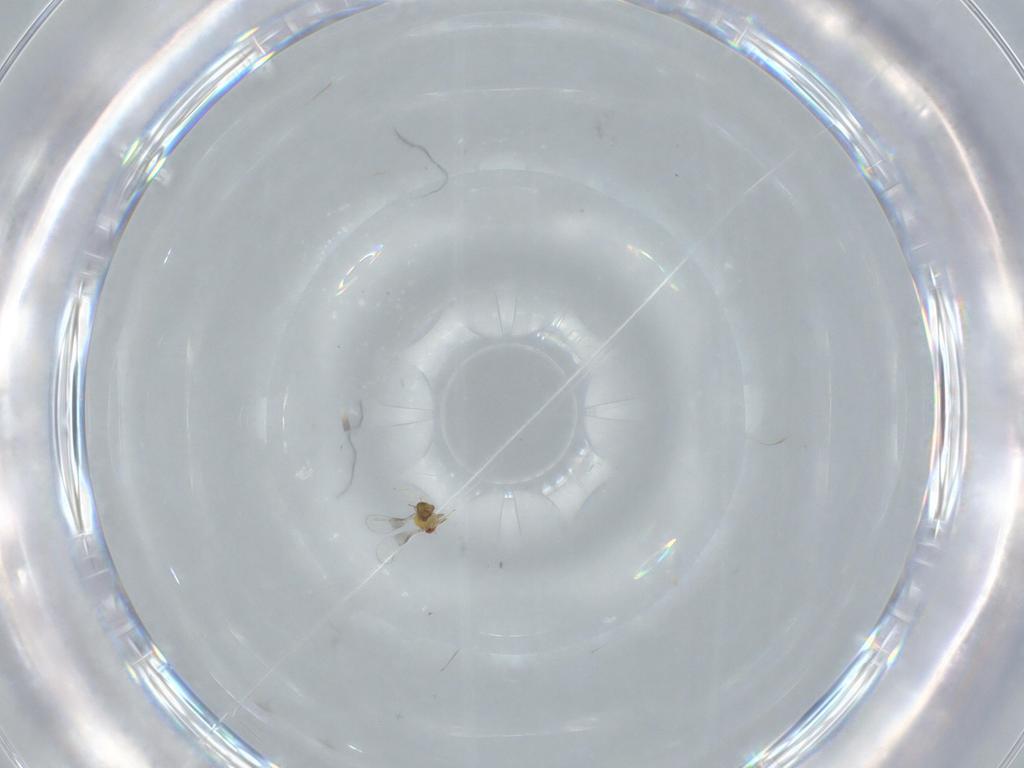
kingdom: Animalia
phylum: Arthropoda
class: Insecta
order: Hymenoptera
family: Trichogrammatidae
